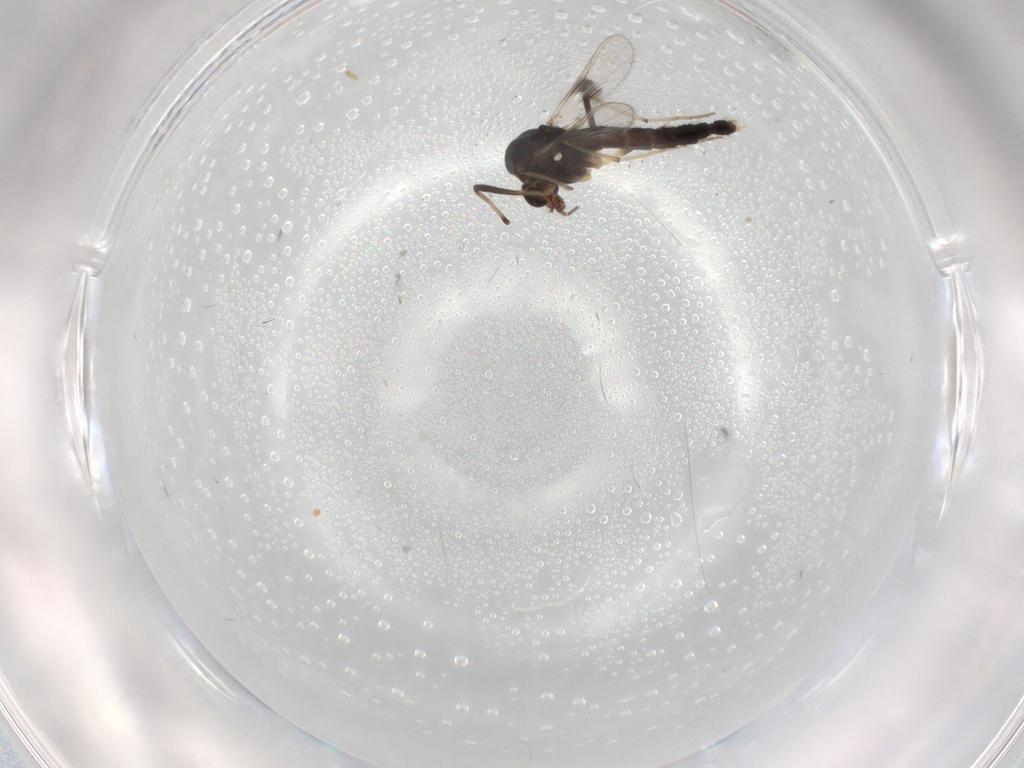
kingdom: Animalia
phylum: Arthropoda
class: Insecta
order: Diptera
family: Chironomidae
